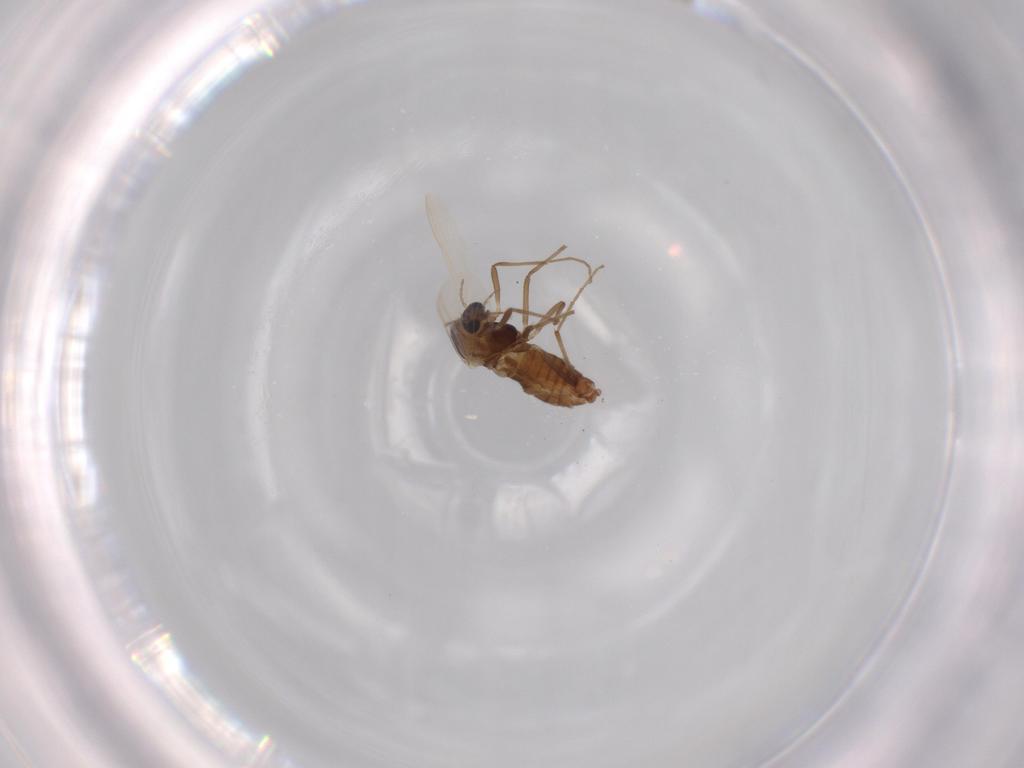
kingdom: Animalia
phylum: Arthropoda
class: Insecta
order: Diptera
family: Chironomidae
